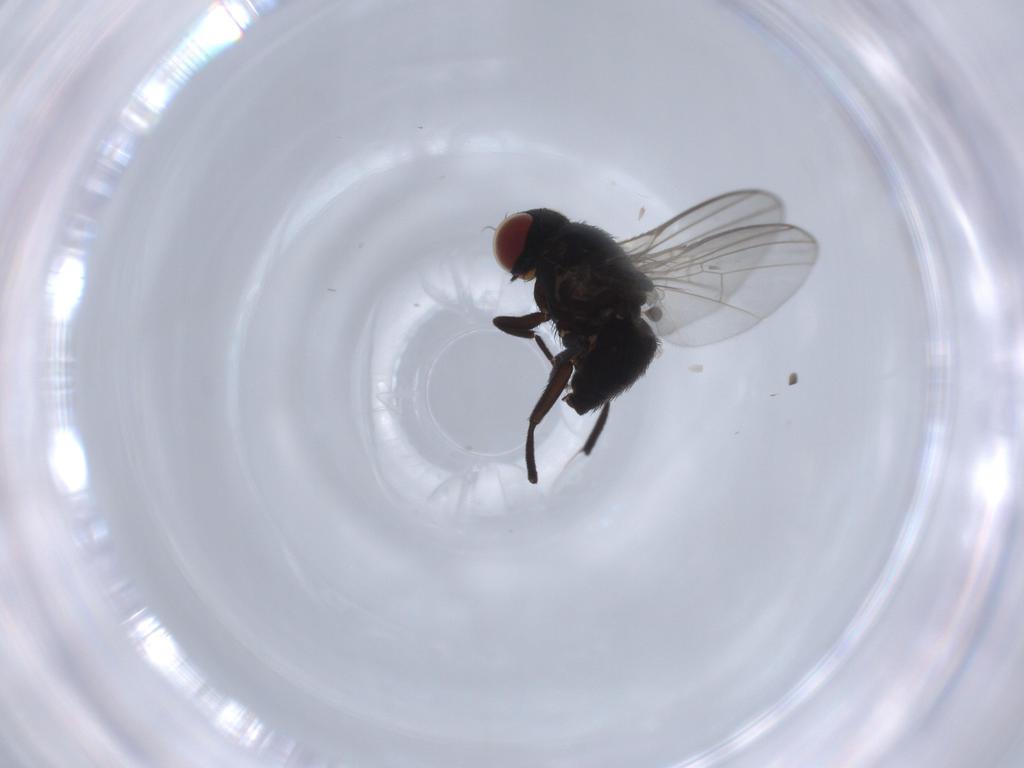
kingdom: Animalia
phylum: Arthropoda
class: Insecta
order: Diptera
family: Agromyzidae
